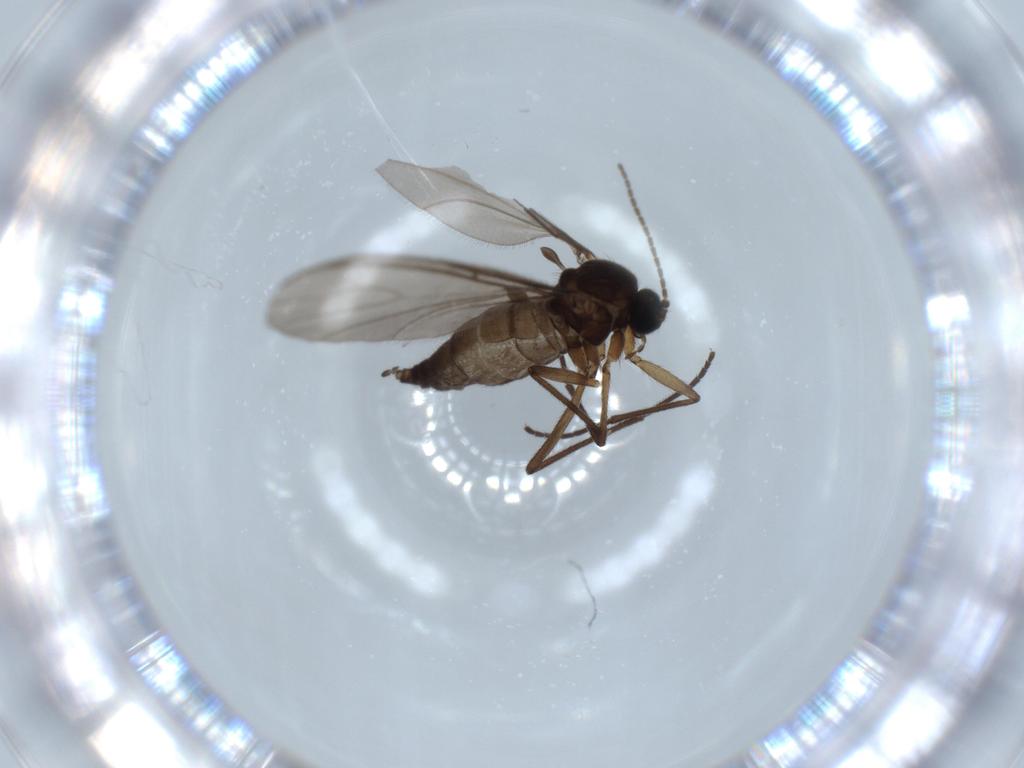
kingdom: Animalia
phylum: Arthropoda
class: Insecta
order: Diptera
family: Sciaridae
